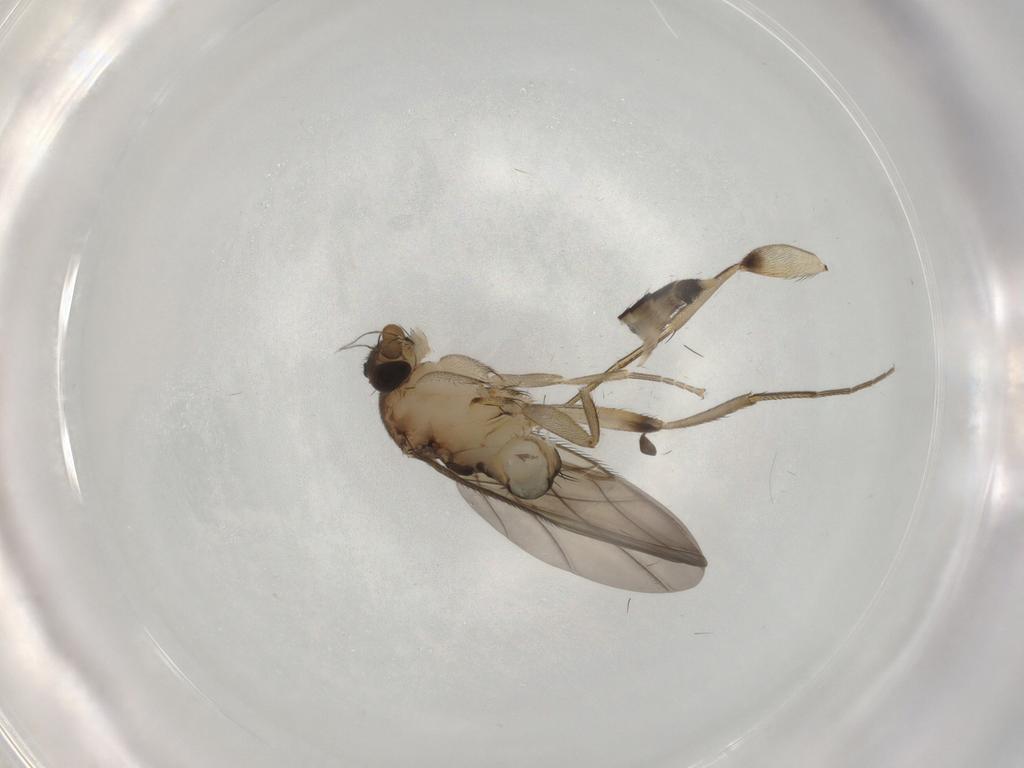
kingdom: Animalia
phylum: Arthropoda
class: Insecta
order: Diptera
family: Phoridae
